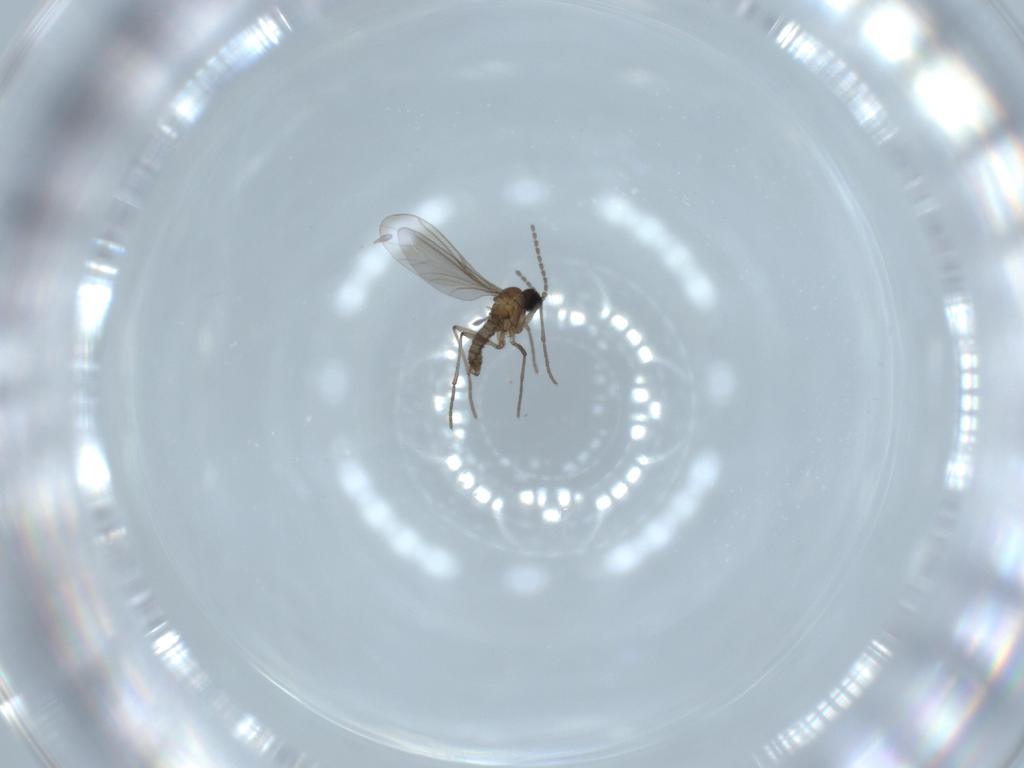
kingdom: Animalia
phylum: Arthropoda
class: Insecta
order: Diptera
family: Sciaridae
